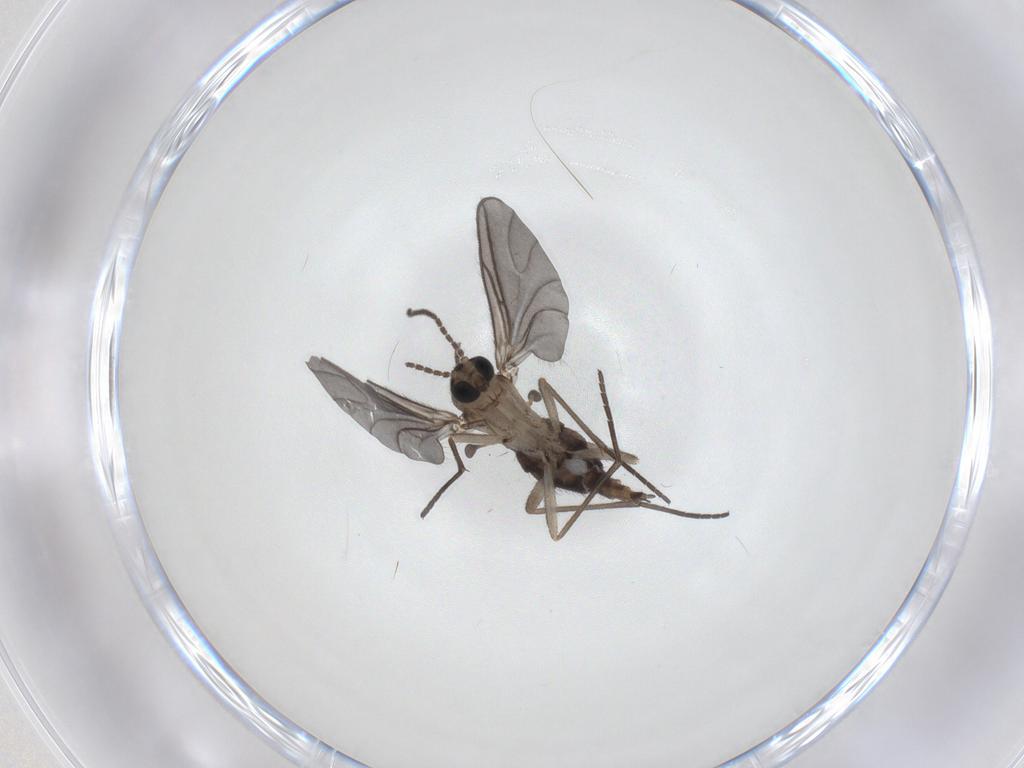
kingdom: Animalia
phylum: Arthropoda
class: Insecta
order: Diptera
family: Sciaridae
